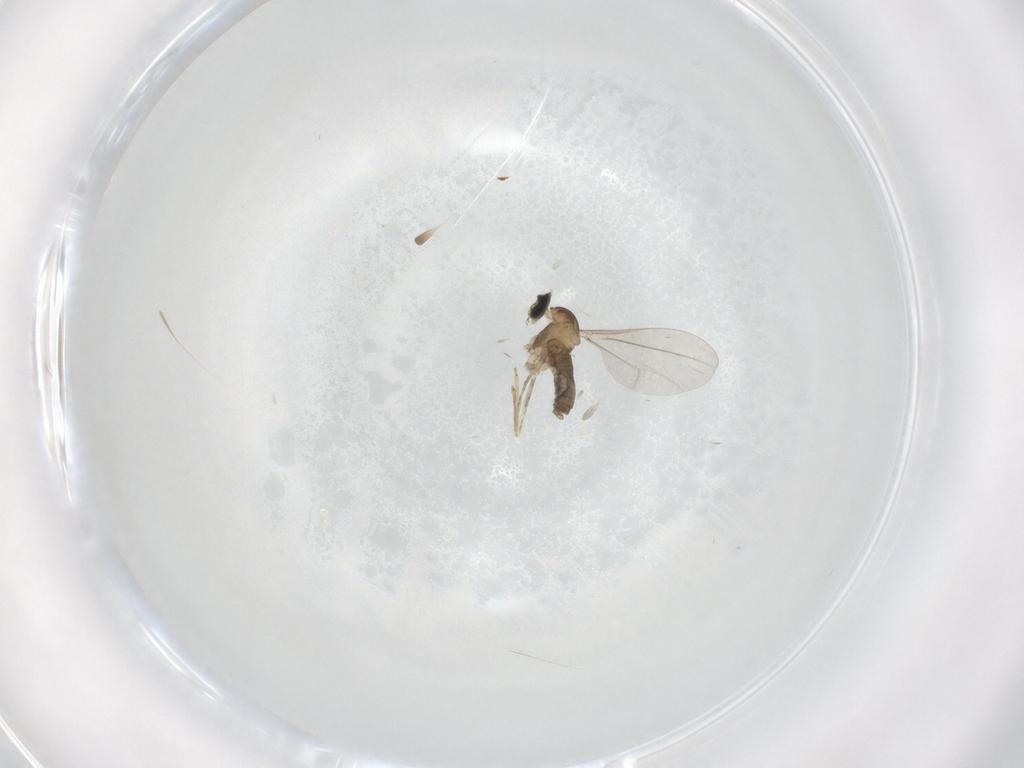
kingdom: Animalia
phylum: Arthropoda
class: Insecta
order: Diptera
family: Cecidomyiidae
